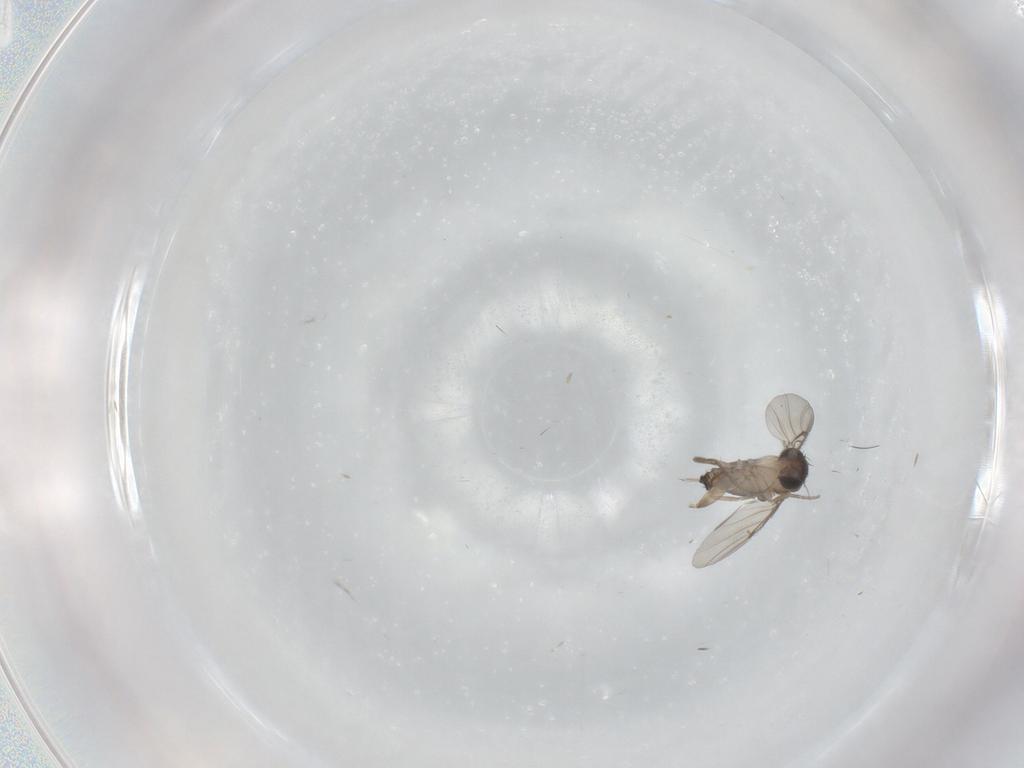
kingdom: Animalia
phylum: Arthropoda
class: Insecta
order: Diptera
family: Phoridae
